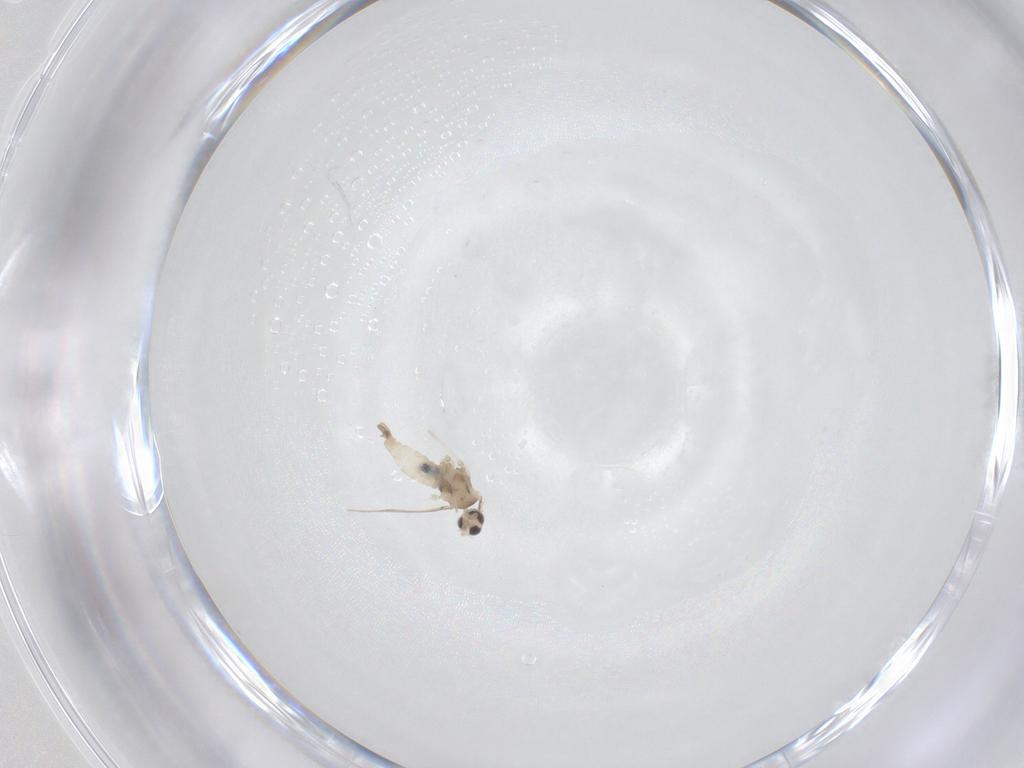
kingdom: Animalia
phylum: Arthropoda
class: Insecta
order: Diptera
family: Cecidomyiidae
